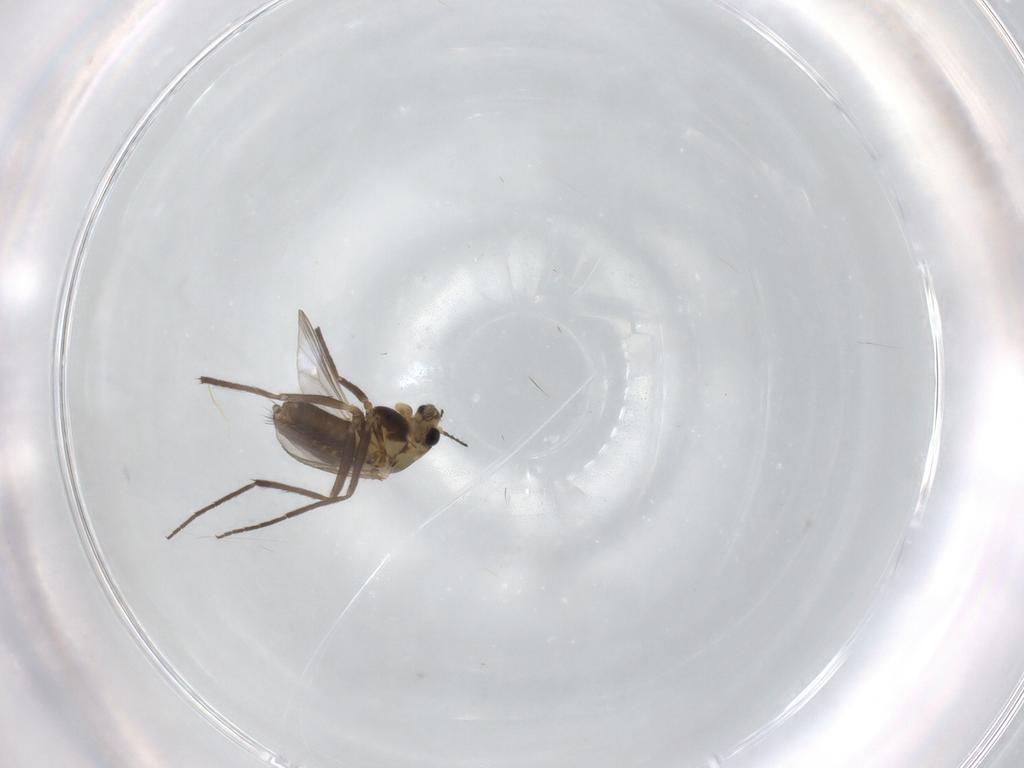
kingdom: Animalia
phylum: Arthropoda
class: Insecta
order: Diptera
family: Chironomidae
